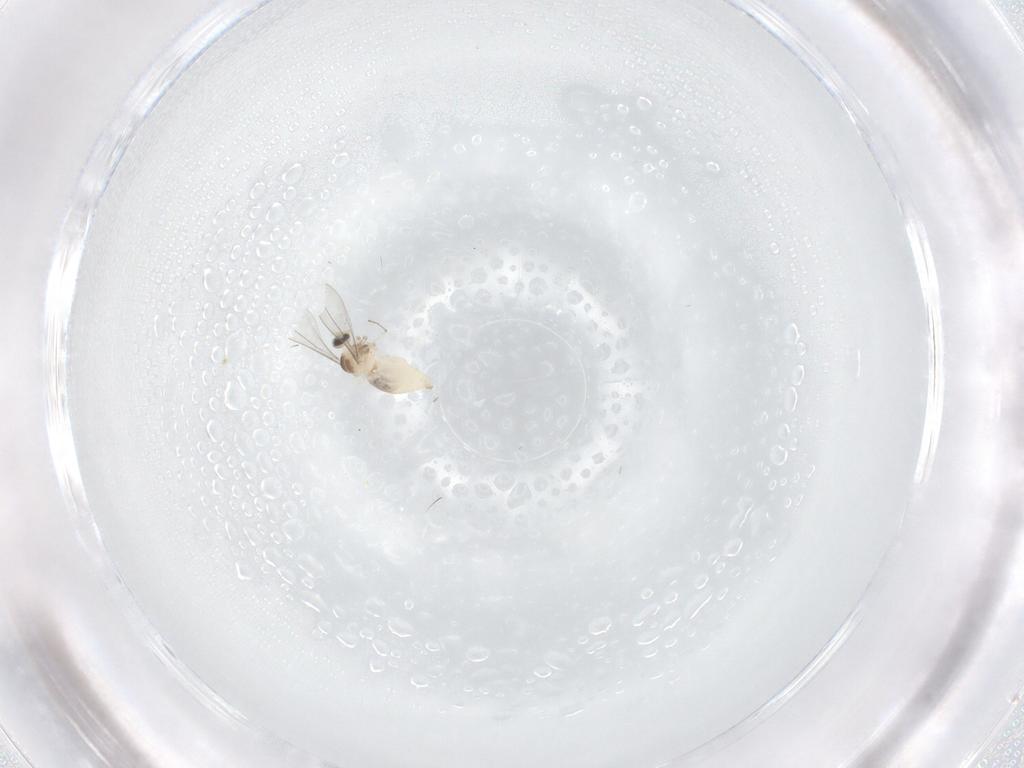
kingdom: Animalia
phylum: Arthropoda
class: Insecta
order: Diptera
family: Cecidomyiidae
